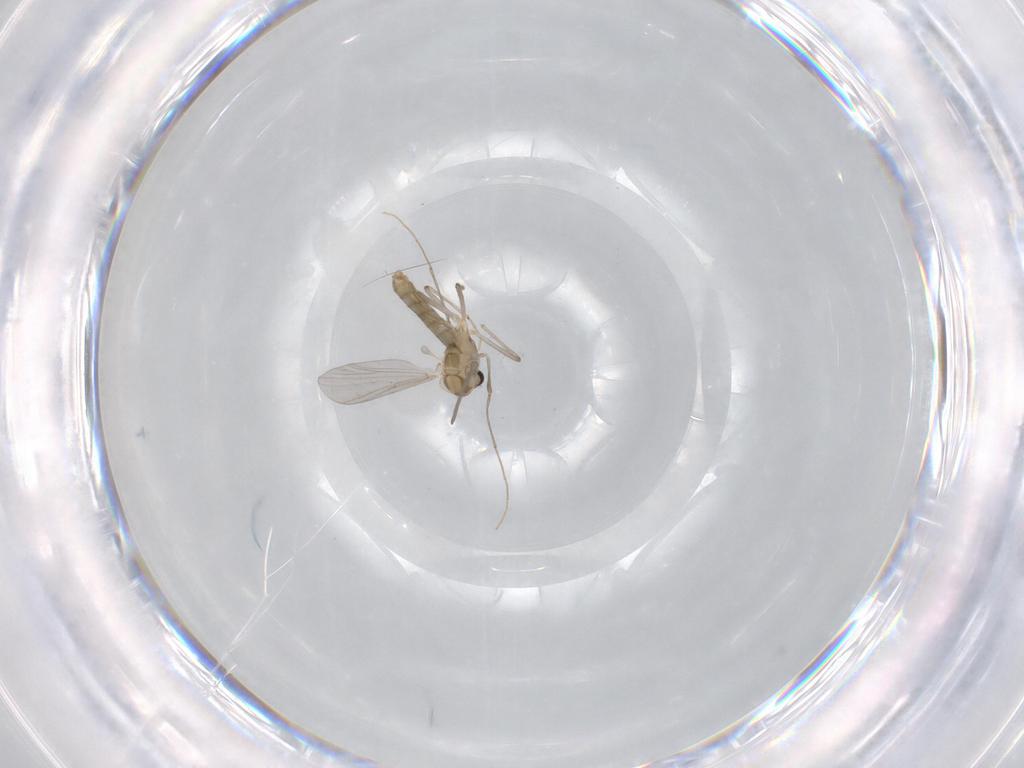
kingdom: Animalia
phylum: Arthropoda
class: Insecta
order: Diptera
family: Chironomidae
